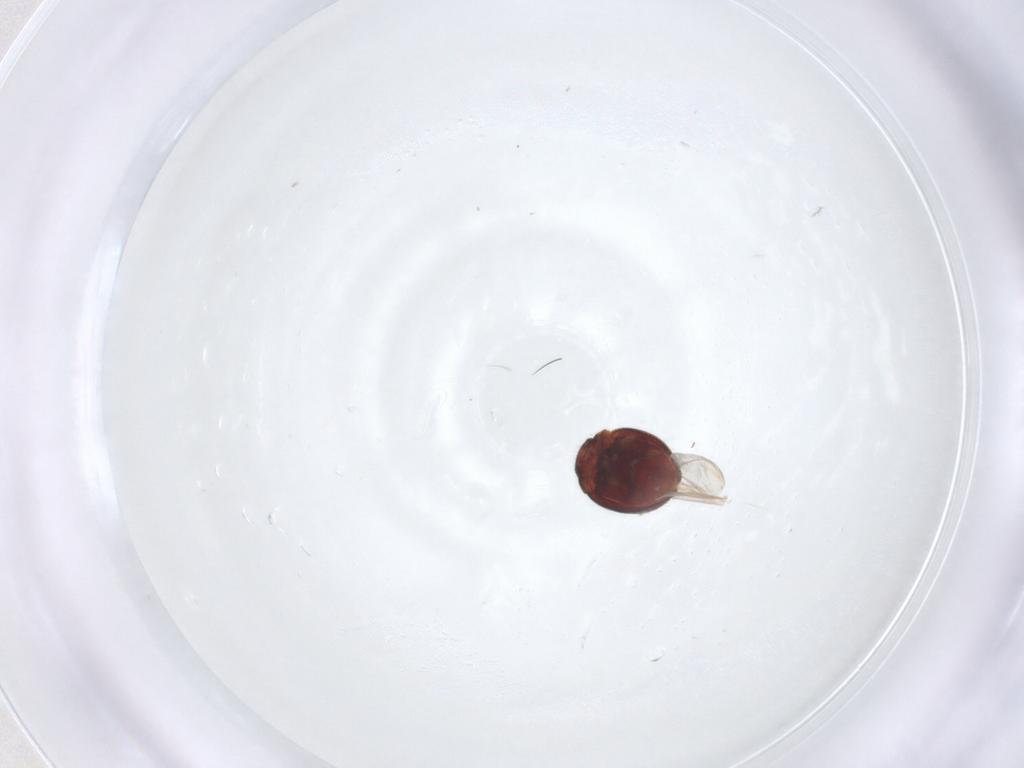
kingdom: Animalia
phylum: Arthropoda
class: Insecta
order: Coleoptera
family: Coccinellidae
